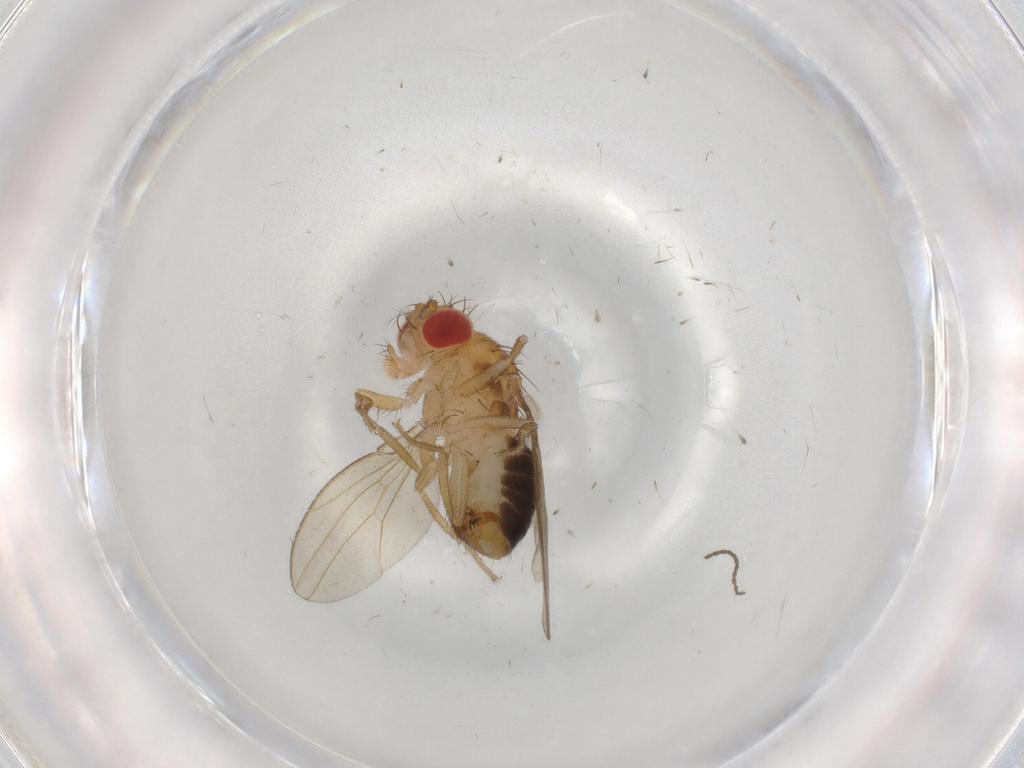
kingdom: Animalia
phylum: Arthropoda
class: Insecta
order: Diptera
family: Drosophilidae
